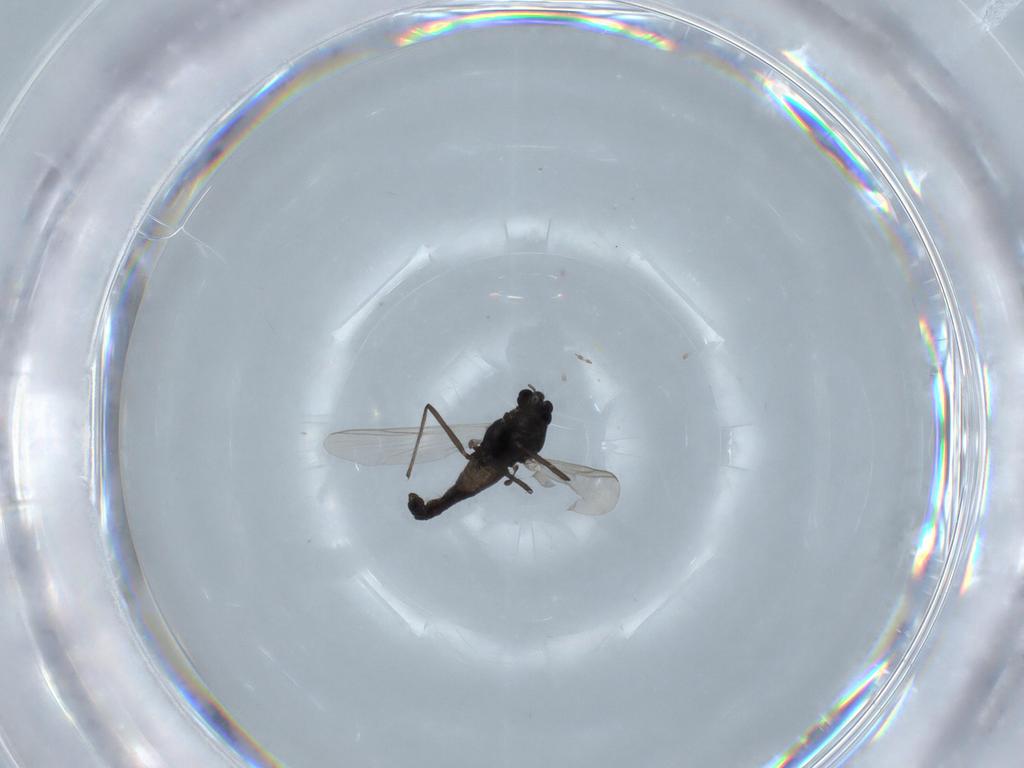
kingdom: Animalia
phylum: Arthropoda
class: Insecta
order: Diptera
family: Chironomidae
